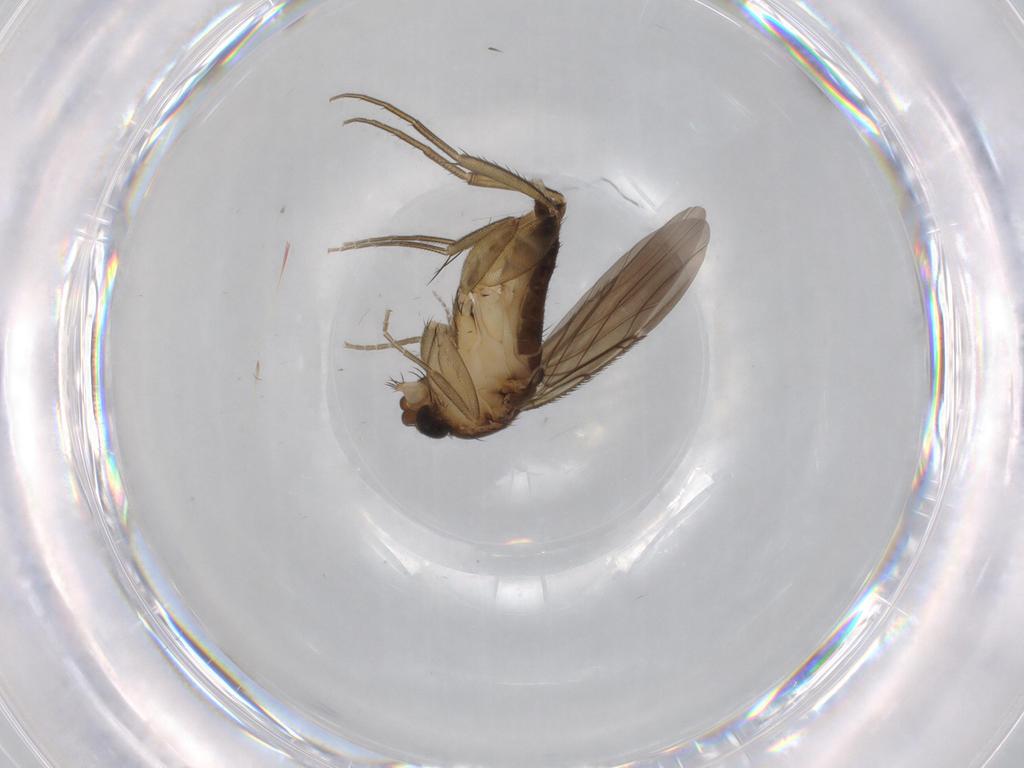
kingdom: Animalia
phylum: Arthropoda
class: Insecta
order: Diptera
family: Phoridae
